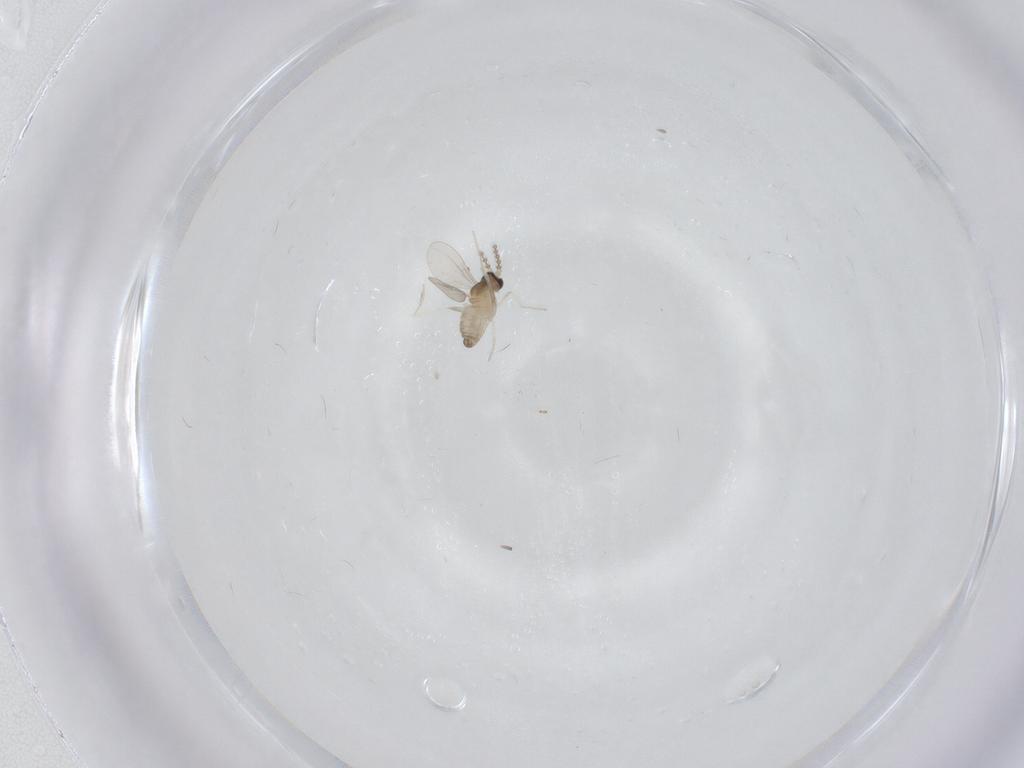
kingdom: Animalia
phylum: Arthropoda
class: Insecta
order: Diptera
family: Cecidomyiidae
